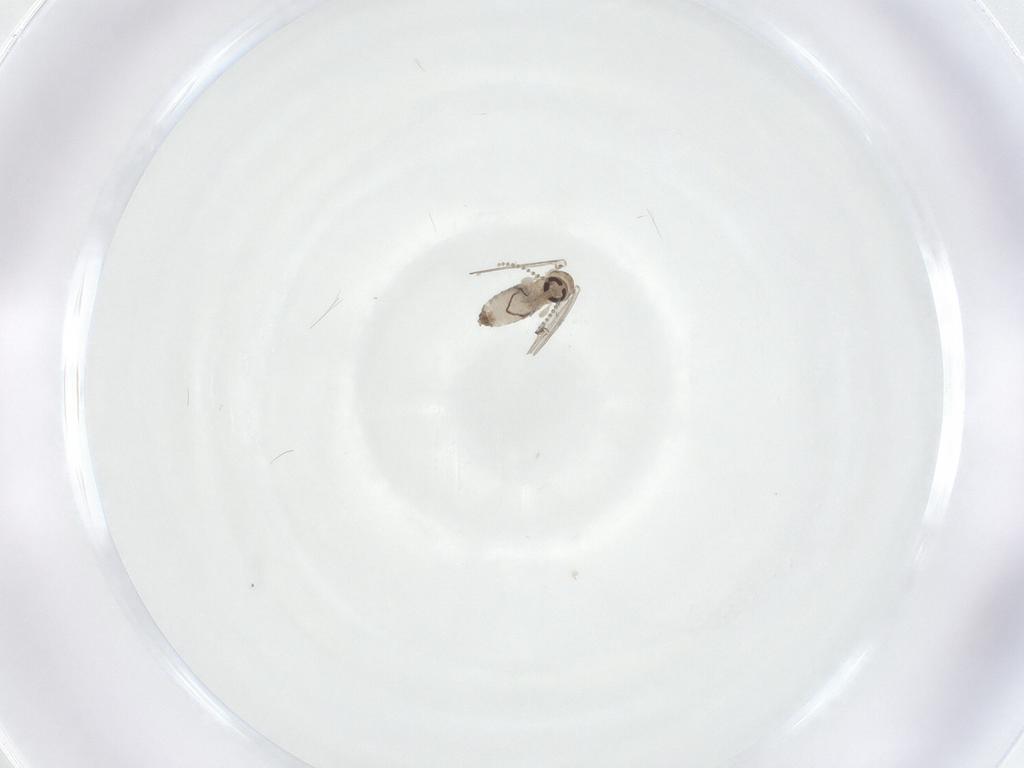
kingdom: Animalia
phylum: Arthropoda
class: Insecta
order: Diptera
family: Psychodidae
